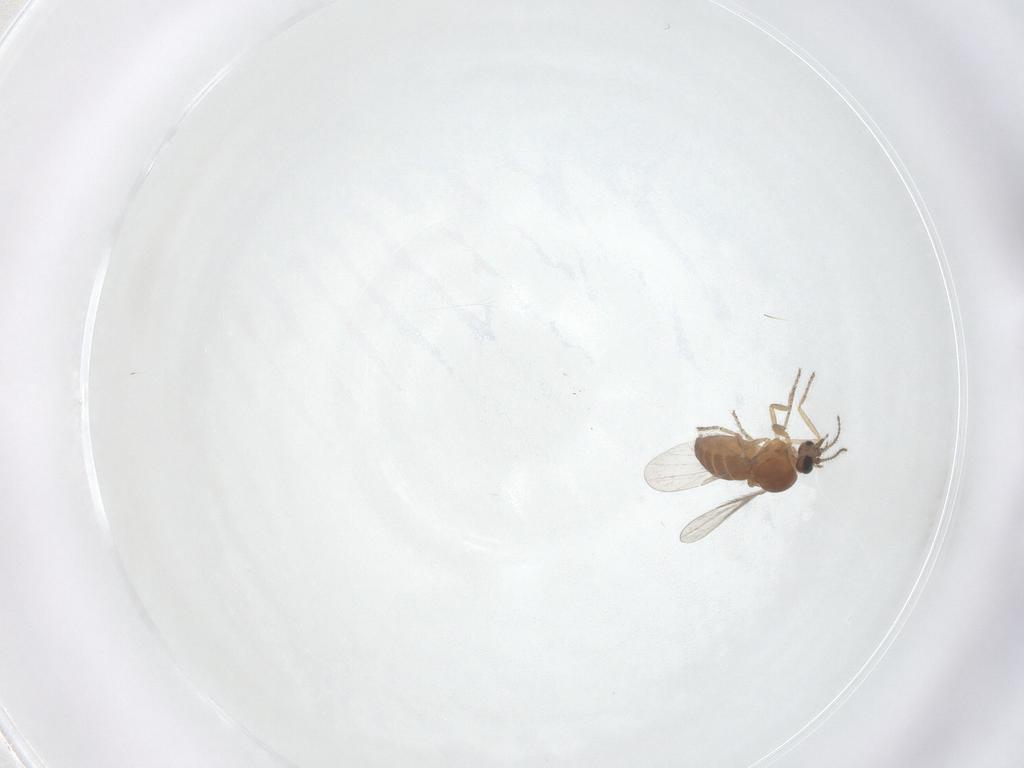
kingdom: Animalia
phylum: Arthropoda
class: Insecta
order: Diptera
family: Ceratopogonidae
